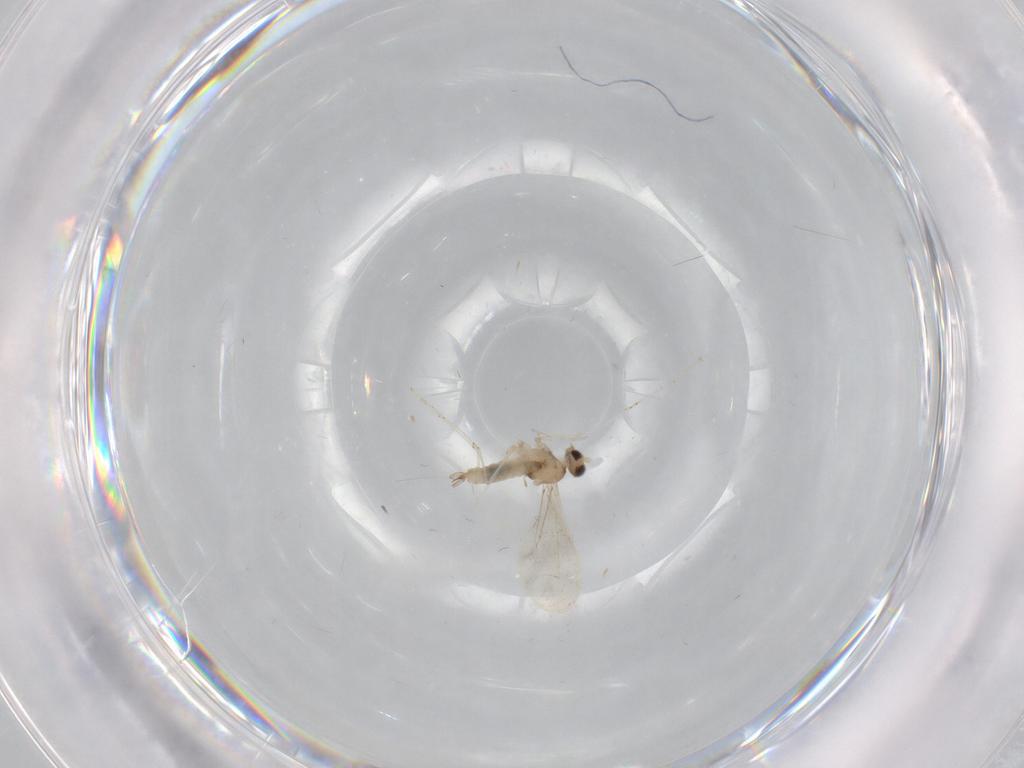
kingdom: Animalia
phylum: Arthropoda
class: Insecta
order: Diptera
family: Cecidomyiidae
